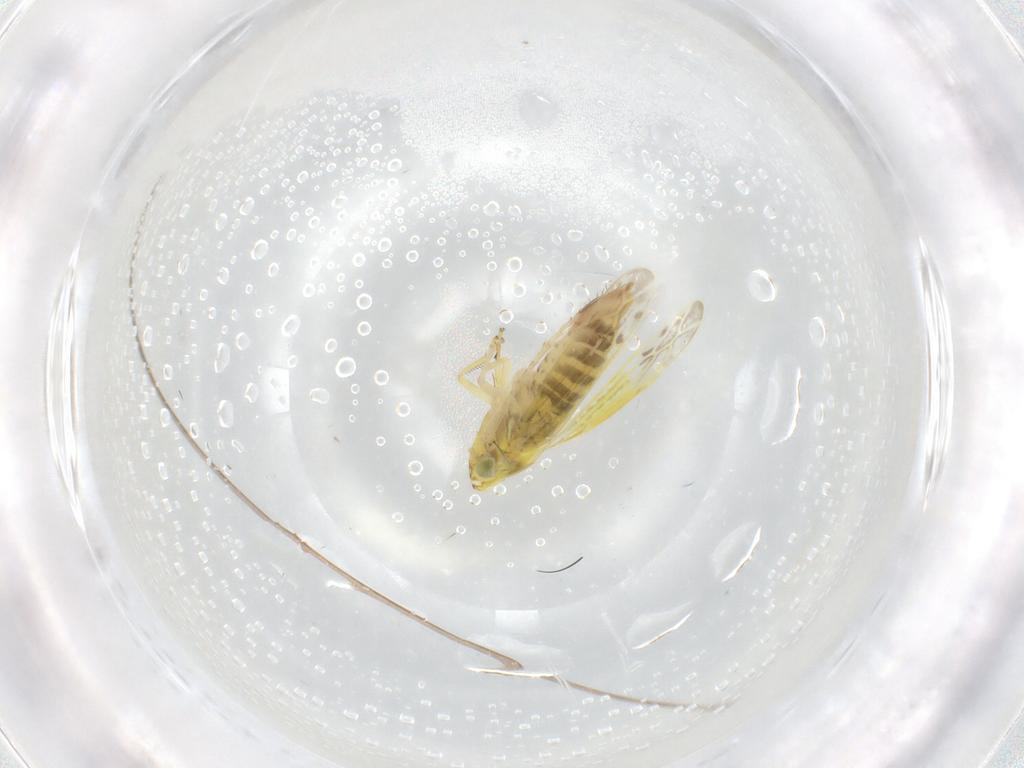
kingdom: Animalia
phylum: Arthropoda
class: Insecta
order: Hemiptera
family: Cicadellidae
